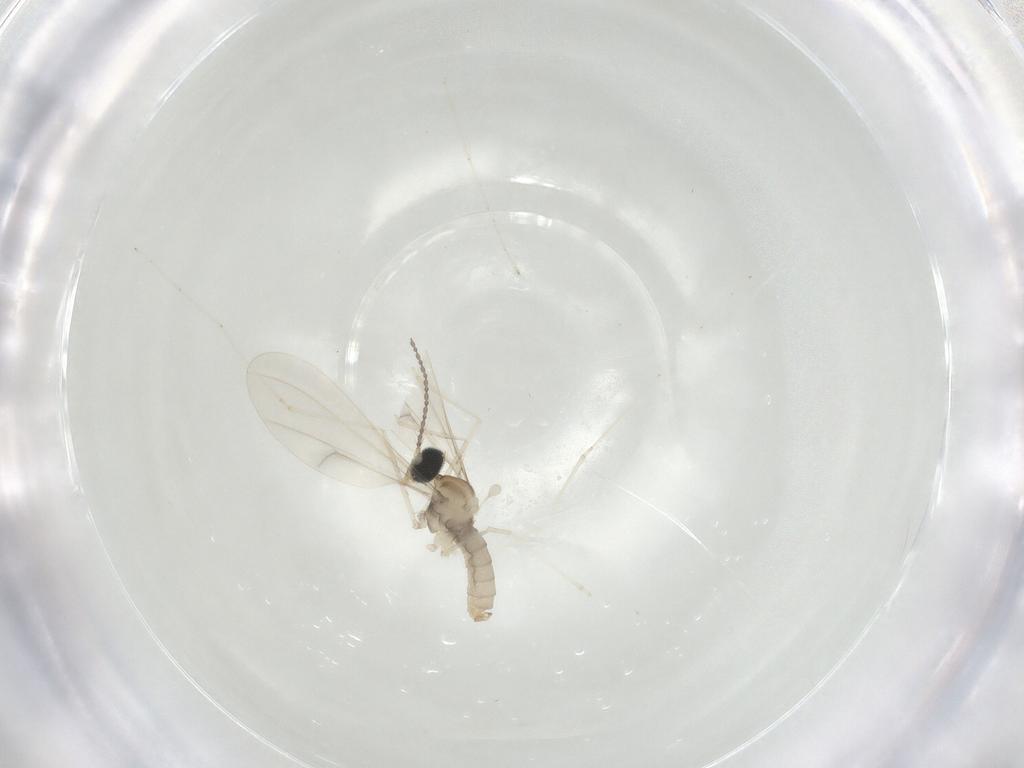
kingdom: Animalia
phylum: Arthropoda
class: Insecta
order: Diptera
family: Cecidomyiidae
